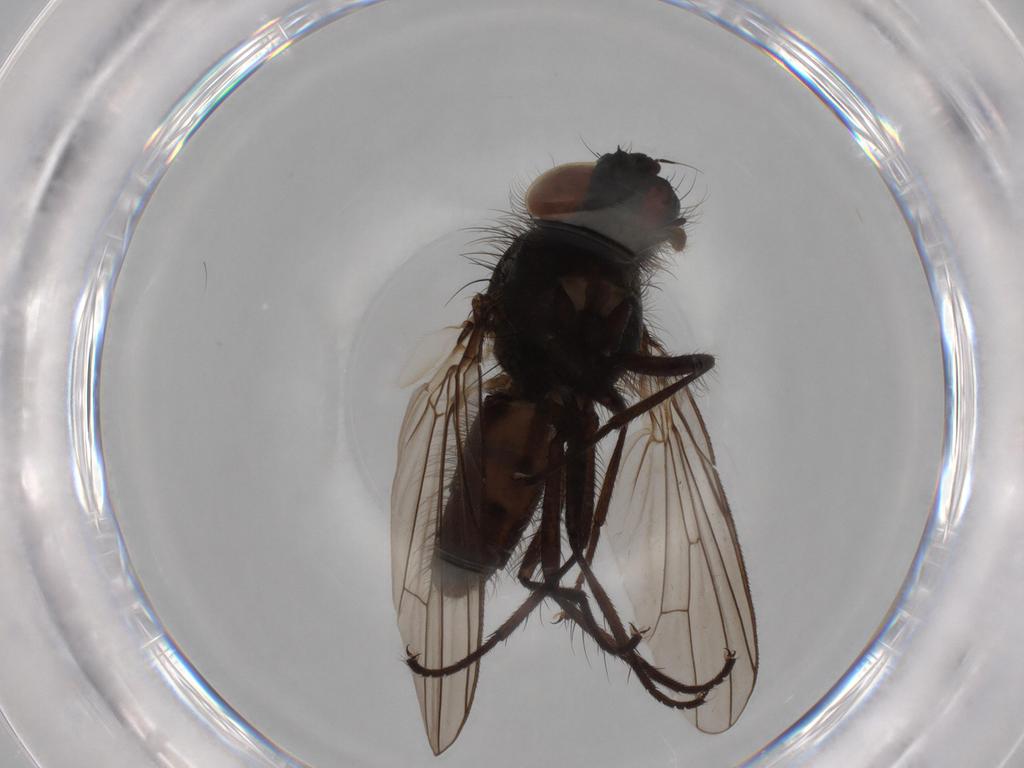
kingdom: Animalia
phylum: Arthropoda
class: Insecta
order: Diptera
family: Anthomyiidae
